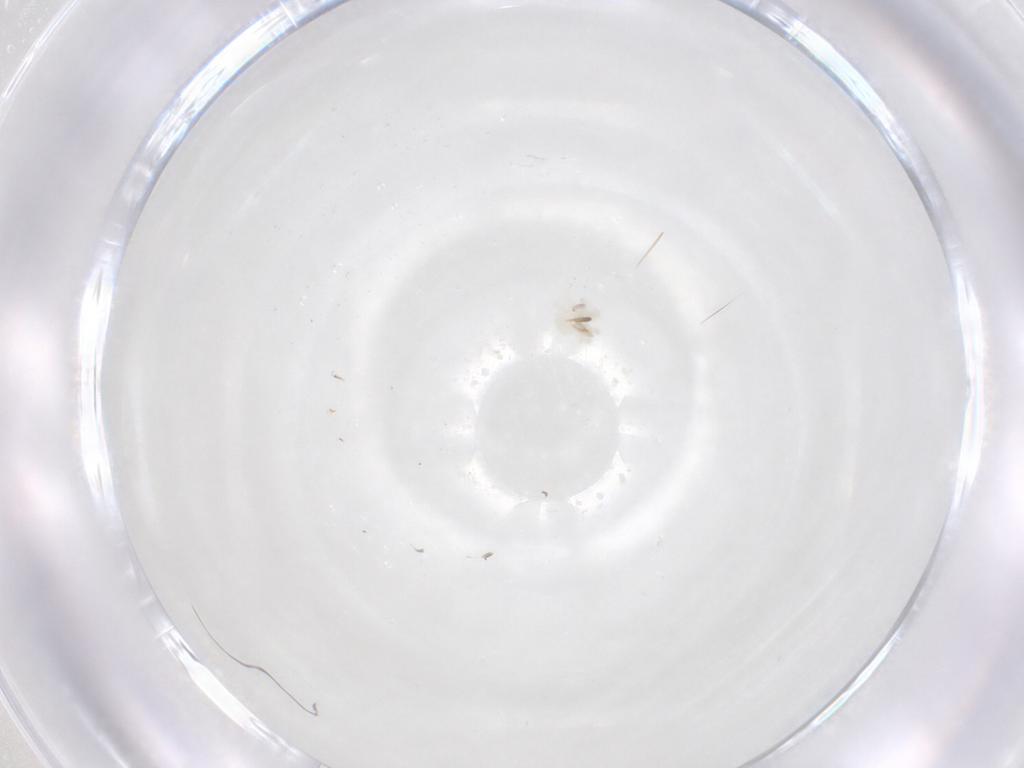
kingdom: Animalia
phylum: Arthropoda
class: Arachnida
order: Trombidiformes
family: Anystidae
